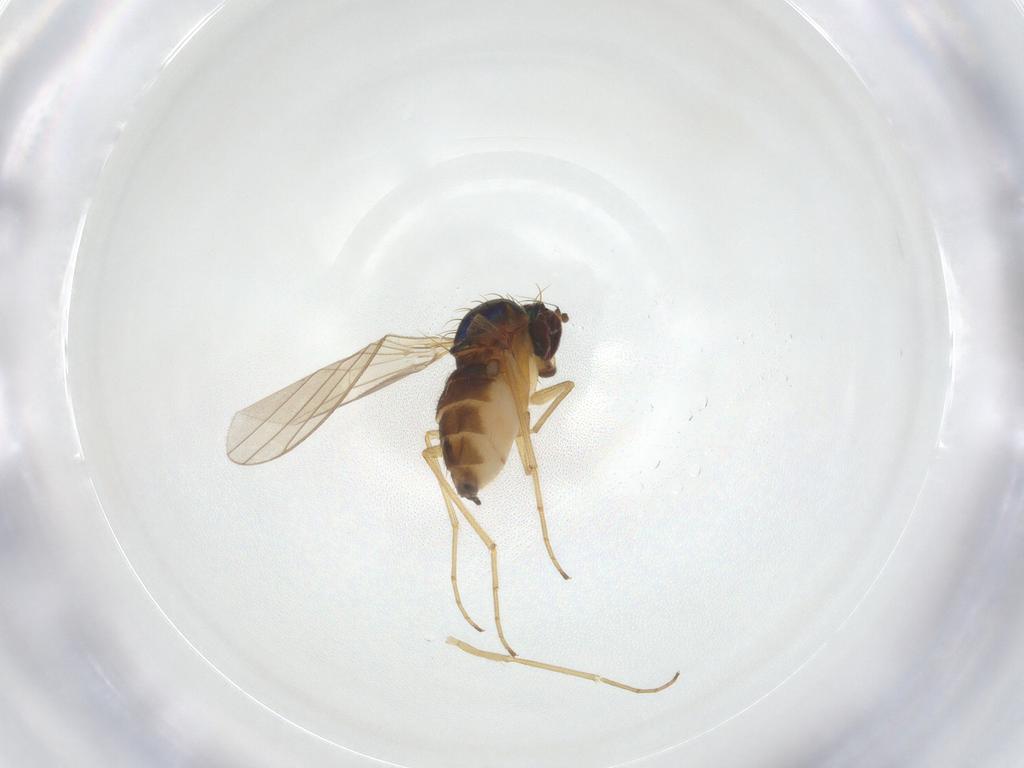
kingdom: Animalia
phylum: Arthropoda
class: Insecta
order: Diptera
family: Dolichopodidae
